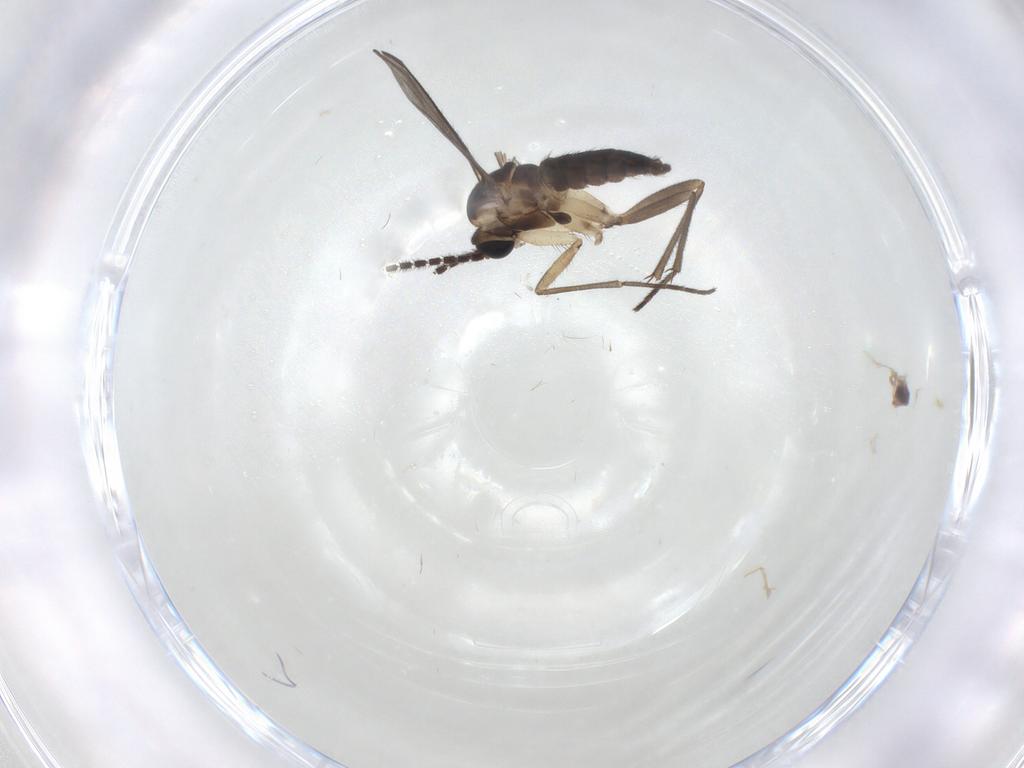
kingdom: Animalia
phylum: Arthropoda
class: Insecta
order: Diptera
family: Sciaridae
